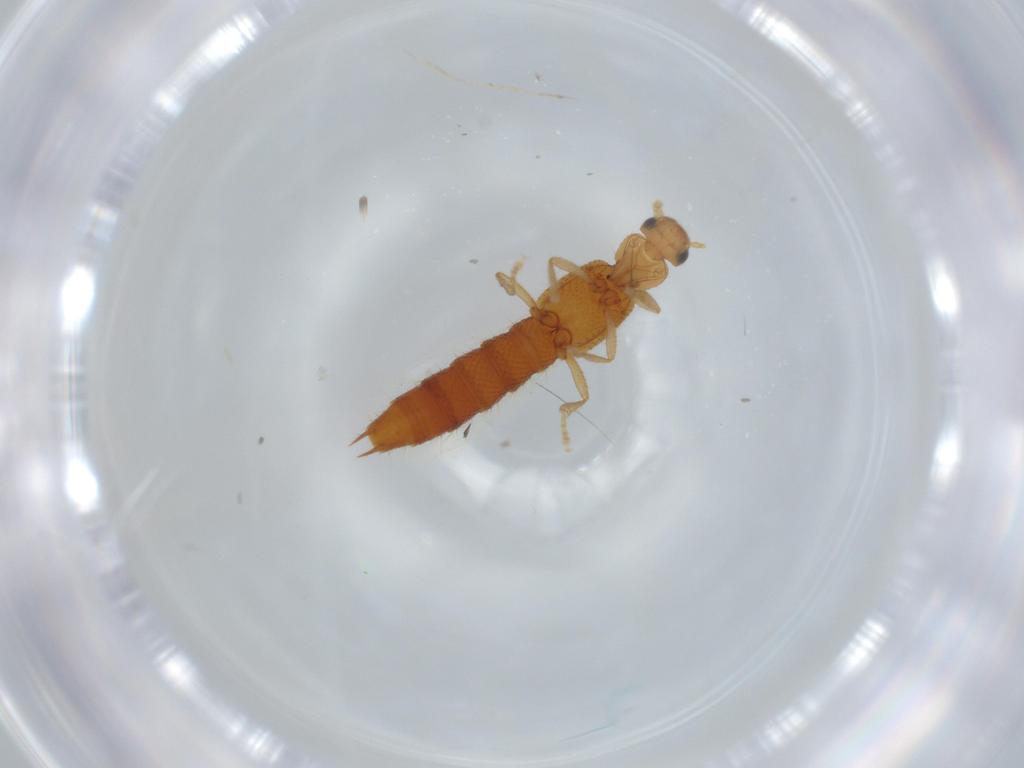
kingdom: Animalia
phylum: Arthropoda
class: Insecta
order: Coleoptera
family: Staphylinidae
